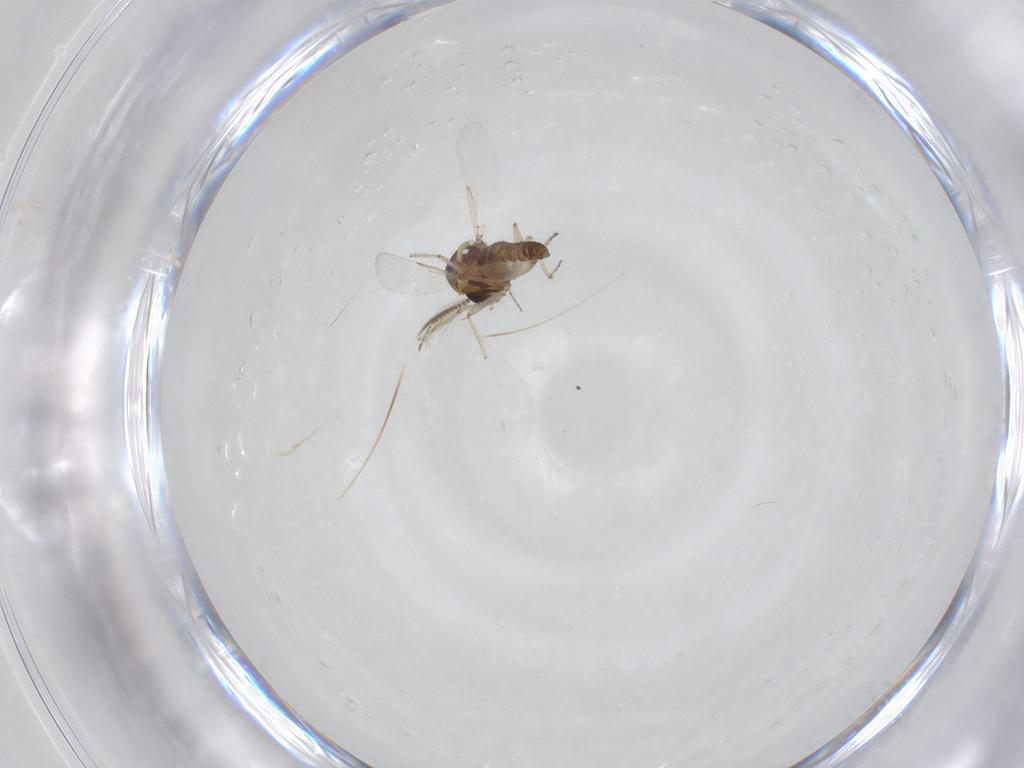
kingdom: Animalia
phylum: Arthropoda
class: Insecta
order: Diptera
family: Ceratopogonidae
